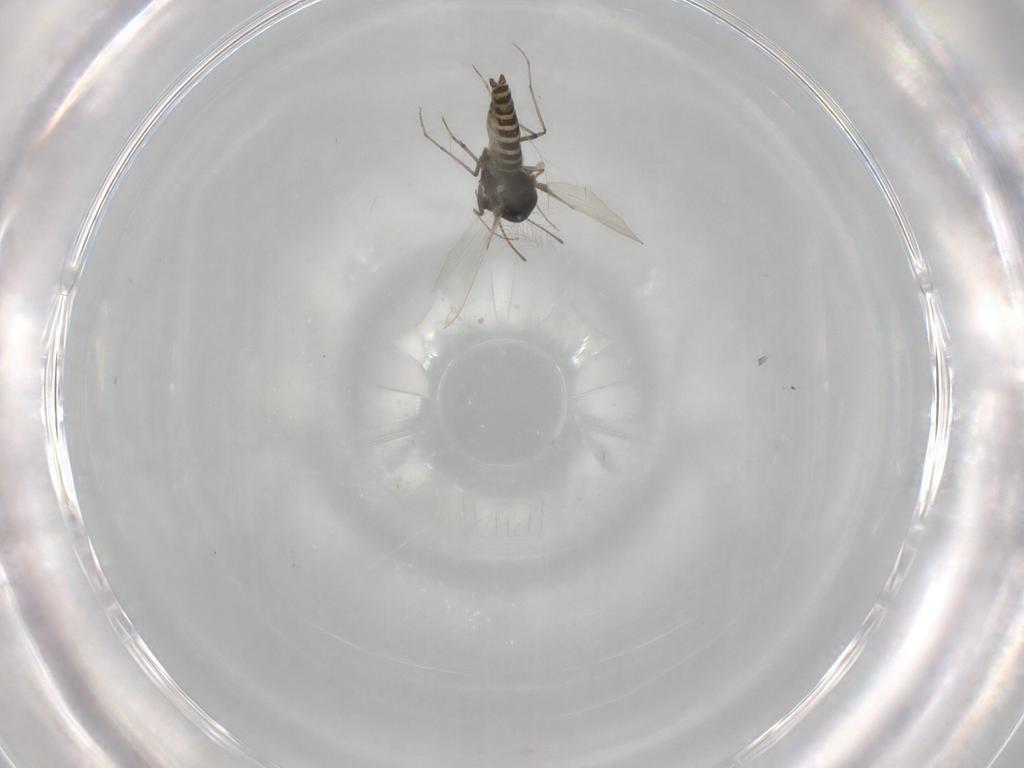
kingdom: Animalia
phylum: Arthropoda
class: Insecta
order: Diptera
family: Chironomidae
